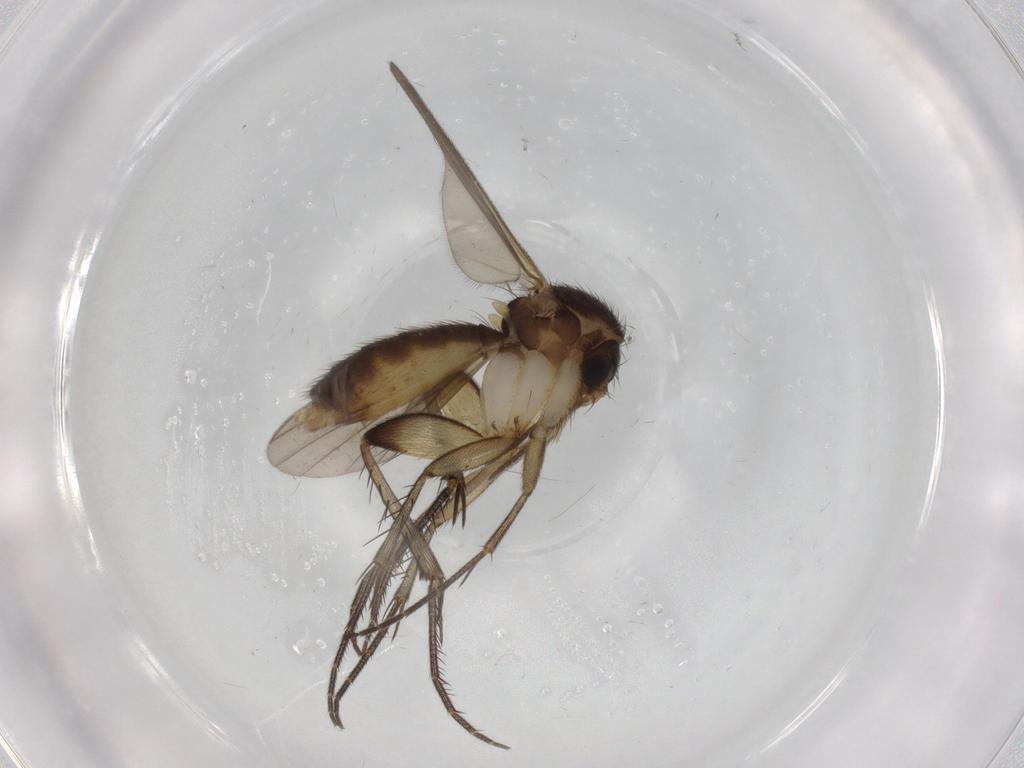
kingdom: Animalia
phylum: Arthropoda
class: Insecta
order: Diptera
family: Mycetophilidae
